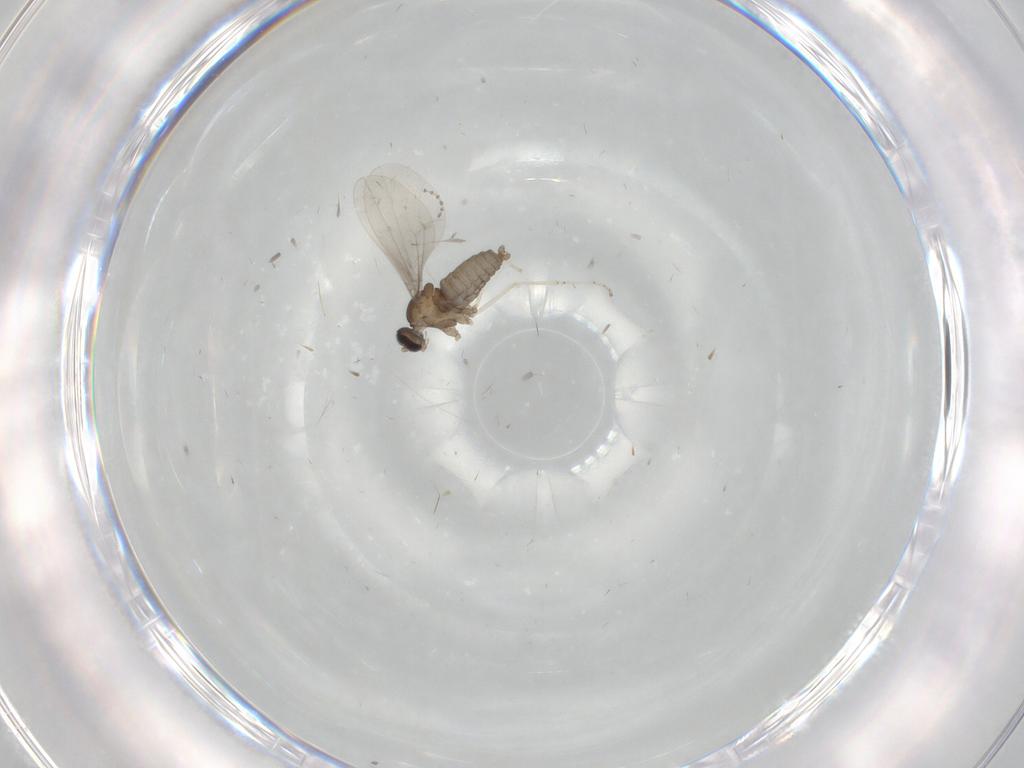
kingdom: Animalia
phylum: Arthropoda
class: Insecta
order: Diptera
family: Cecidomyiidae
